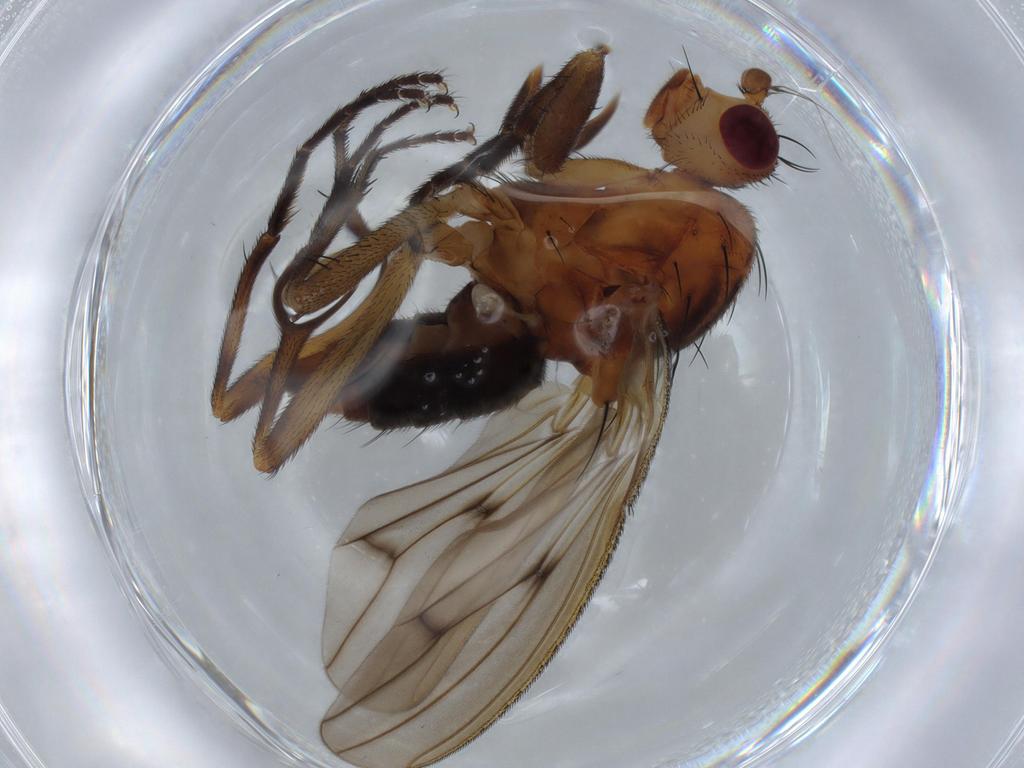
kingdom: Animalia
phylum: Arthropoda
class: Insecta
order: Diptera
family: Heleomyzidae
